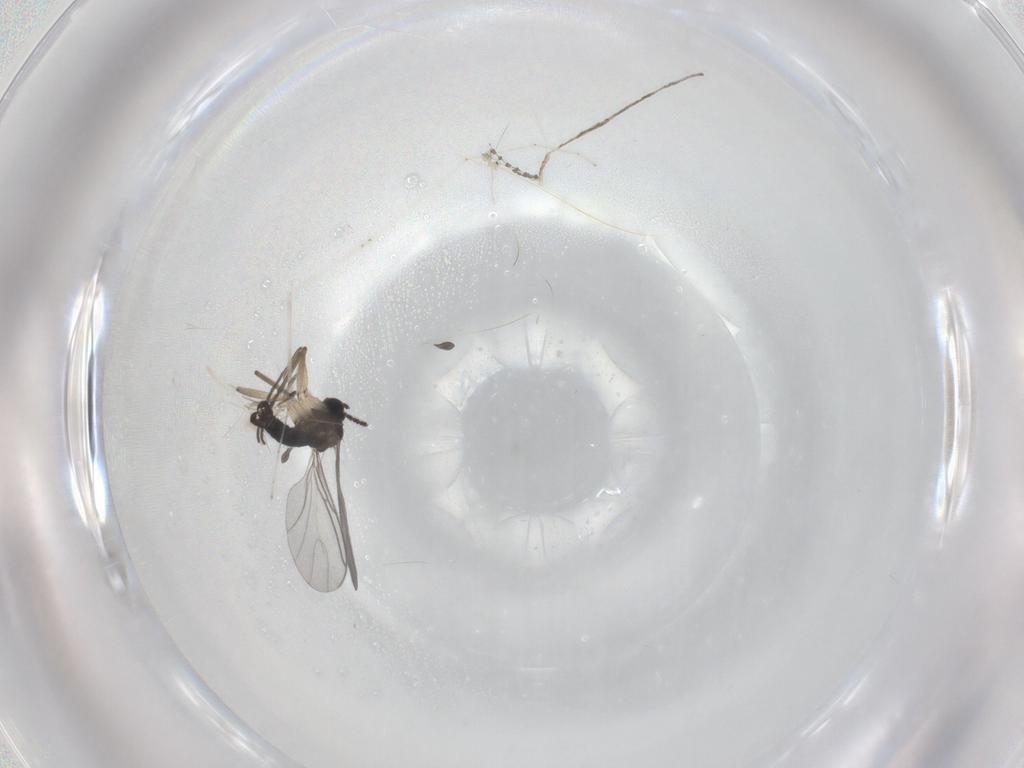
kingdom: Animalia
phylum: Arthropoda
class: Insecta
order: Diptera
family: Sciaridae
